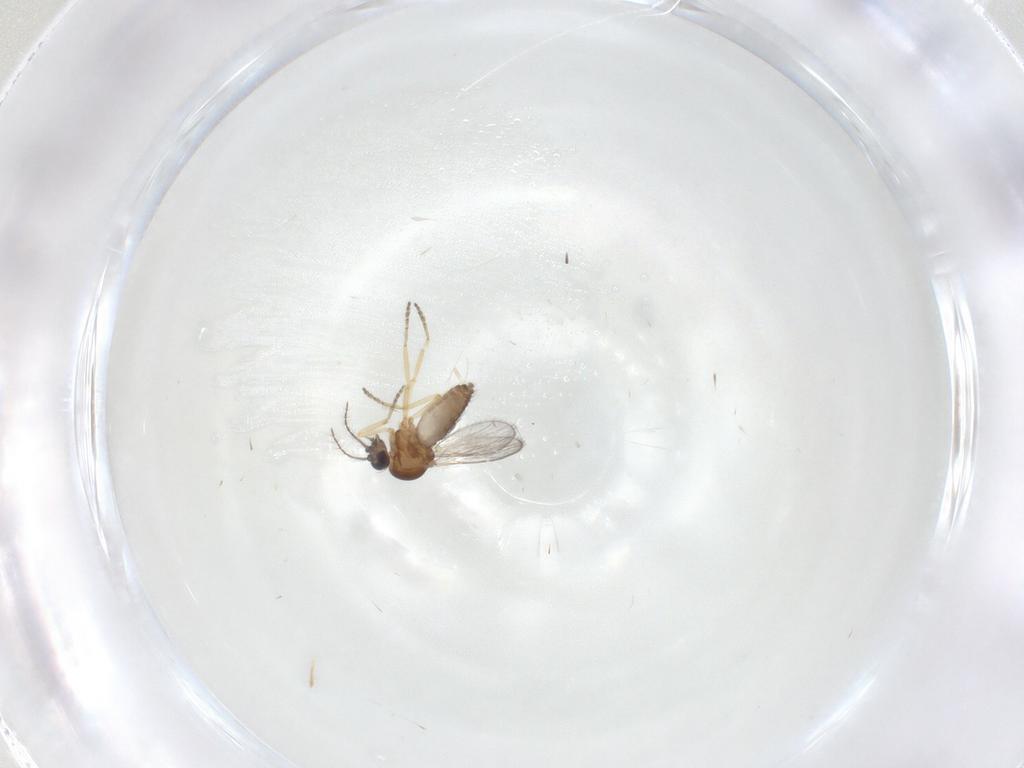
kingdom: Animalia
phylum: Arthropoda
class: Insecta
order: Diptera
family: Ceratopogonidae
